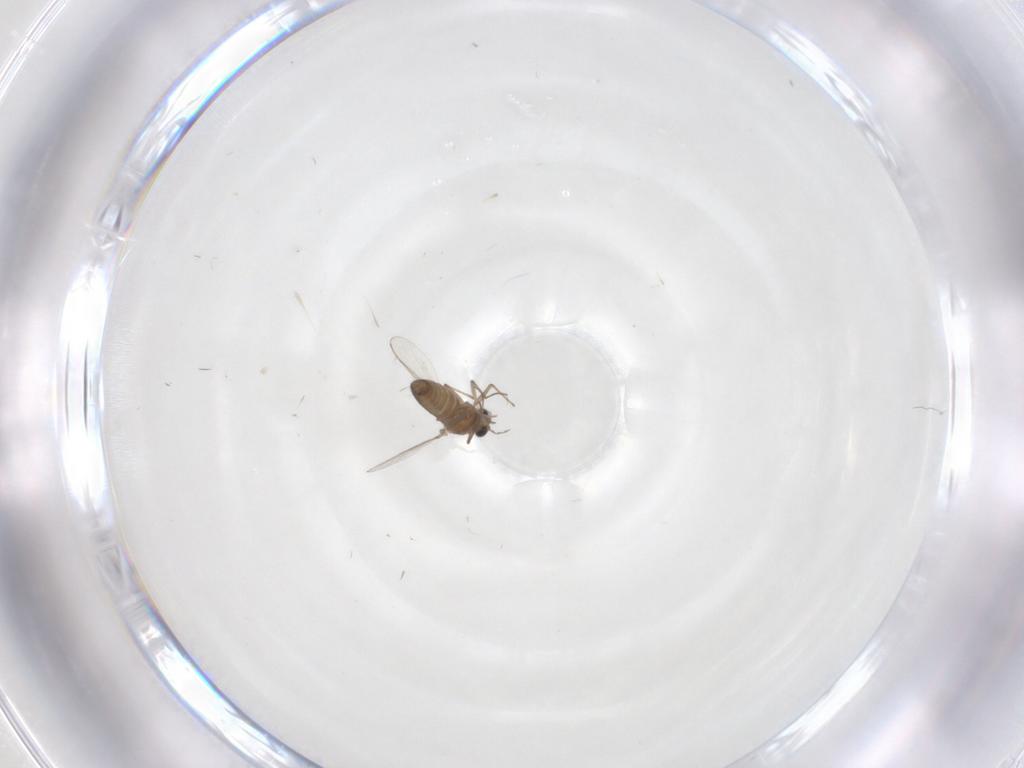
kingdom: Animalia
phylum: Arthropoda
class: Insecta
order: Diptera
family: Chironomidae
